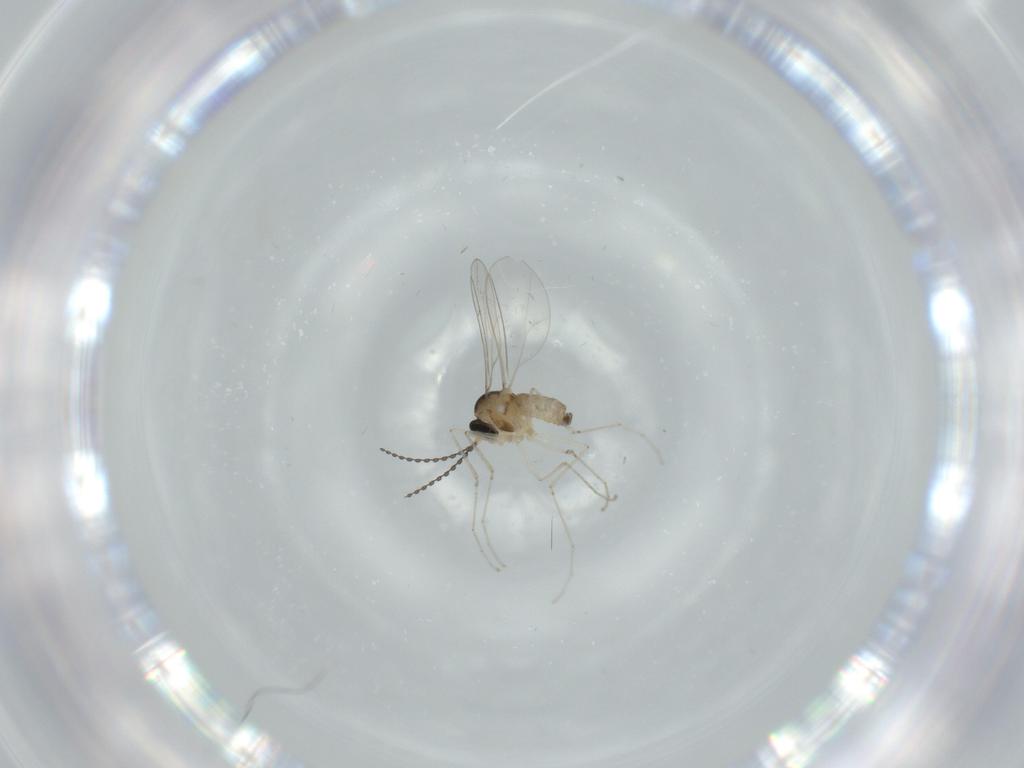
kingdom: Animalia
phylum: Arthropoda
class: Insecta
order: Diptera
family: Cecidomyiidae
